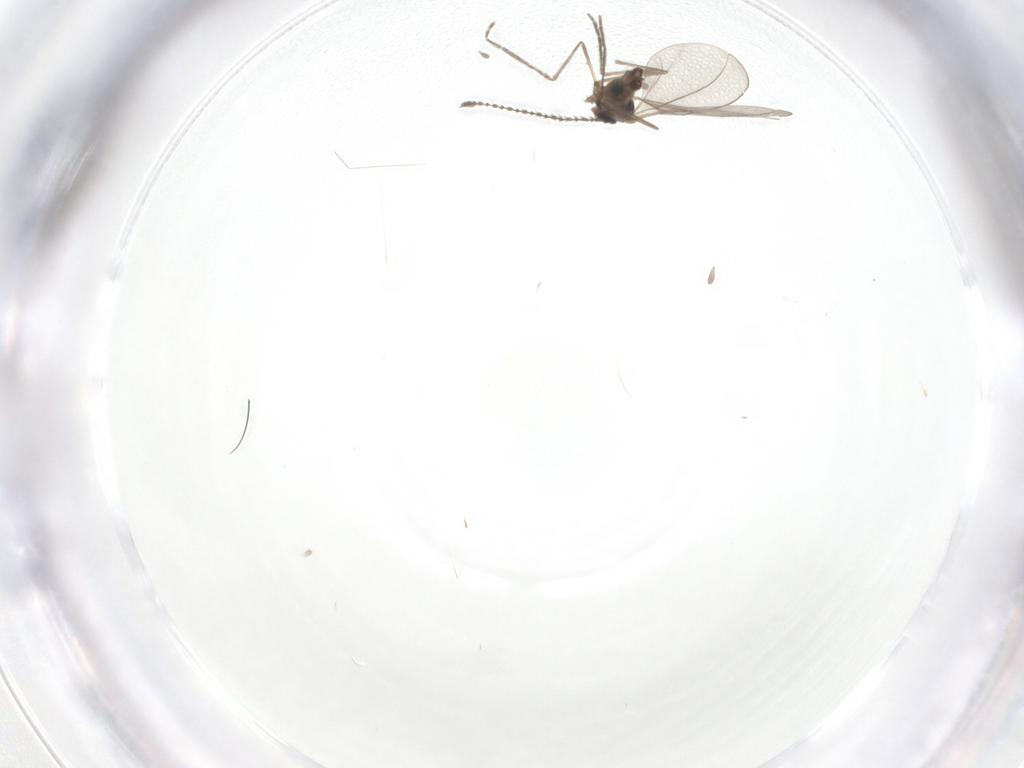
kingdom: Animalia
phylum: Arthropoda
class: Insecta
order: Diptera
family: Cecidomyiidae
